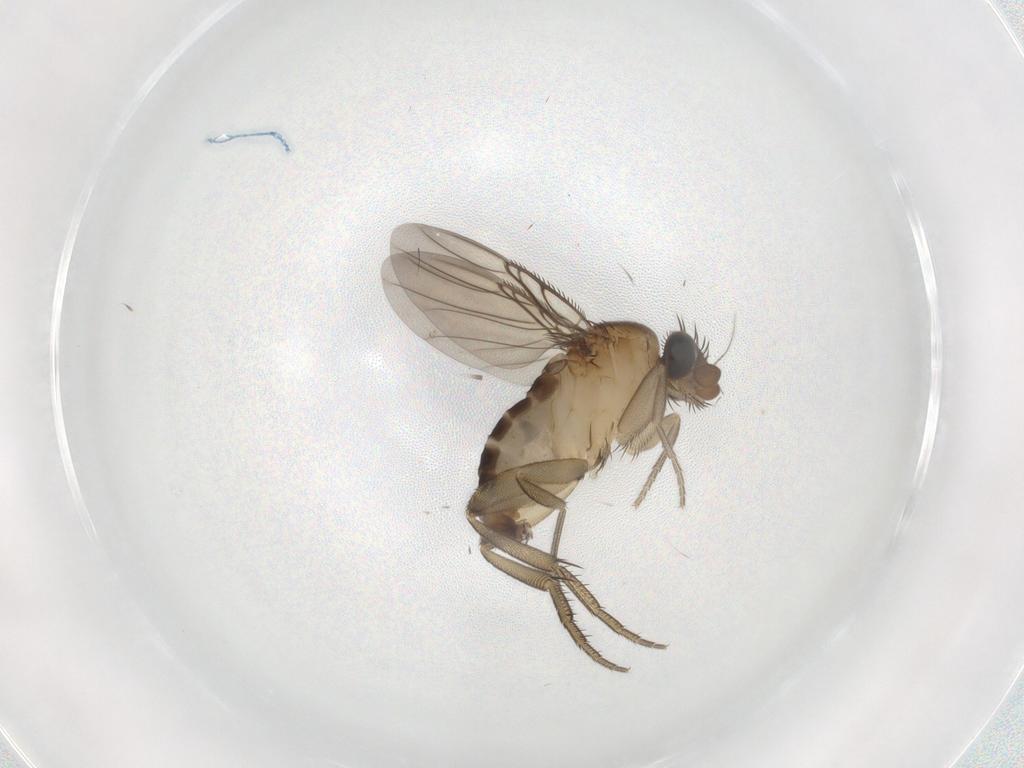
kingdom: Animalia
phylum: Arthropoda
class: Insecta
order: Diptera
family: Phoridae
